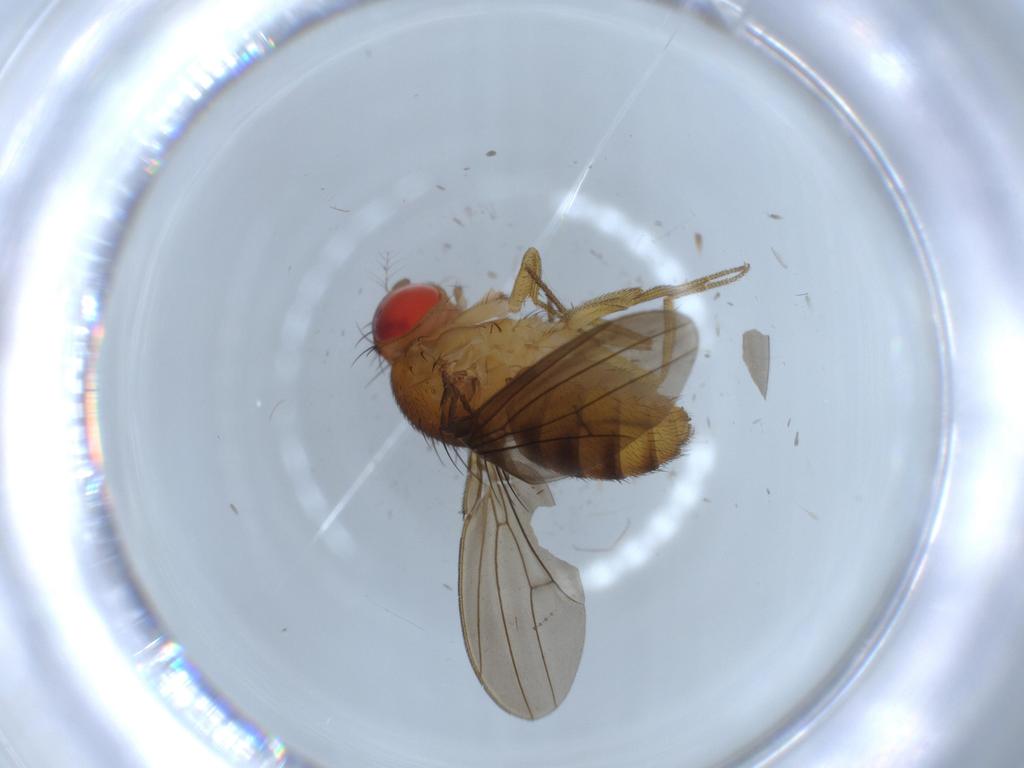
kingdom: Animalia
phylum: Arthropoda
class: Insecta
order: Diptera
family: Drosophilidae
